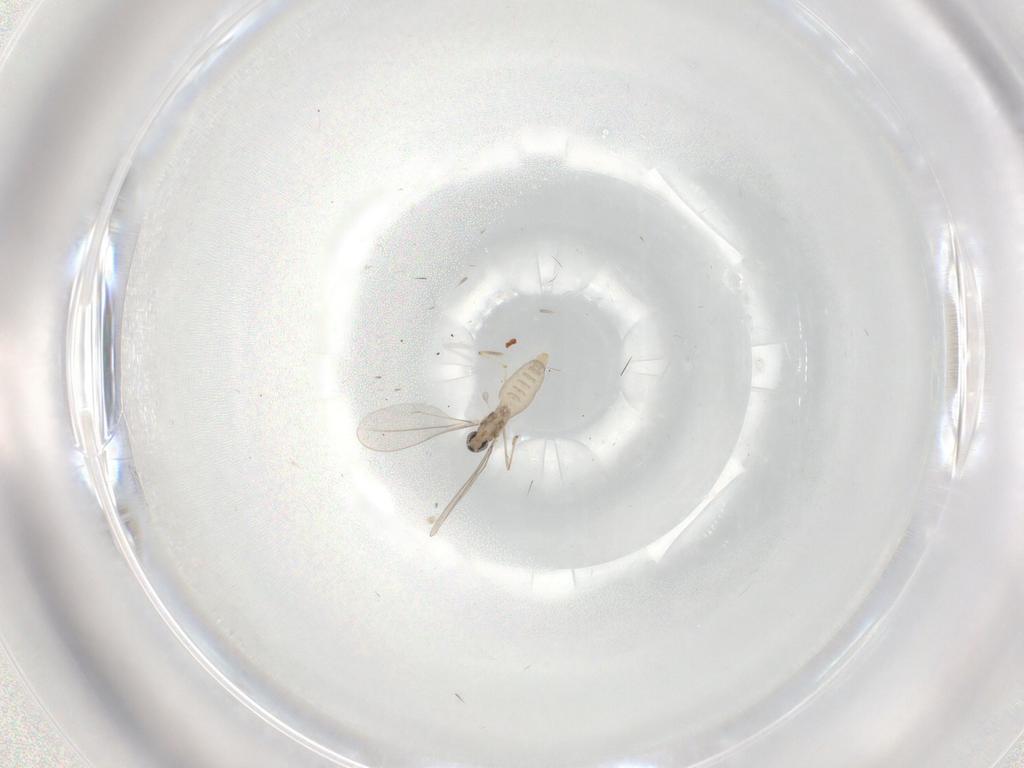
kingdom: Animalia
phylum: Arthropoda
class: Insecta
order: Diptera
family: Cecidomyiidae
